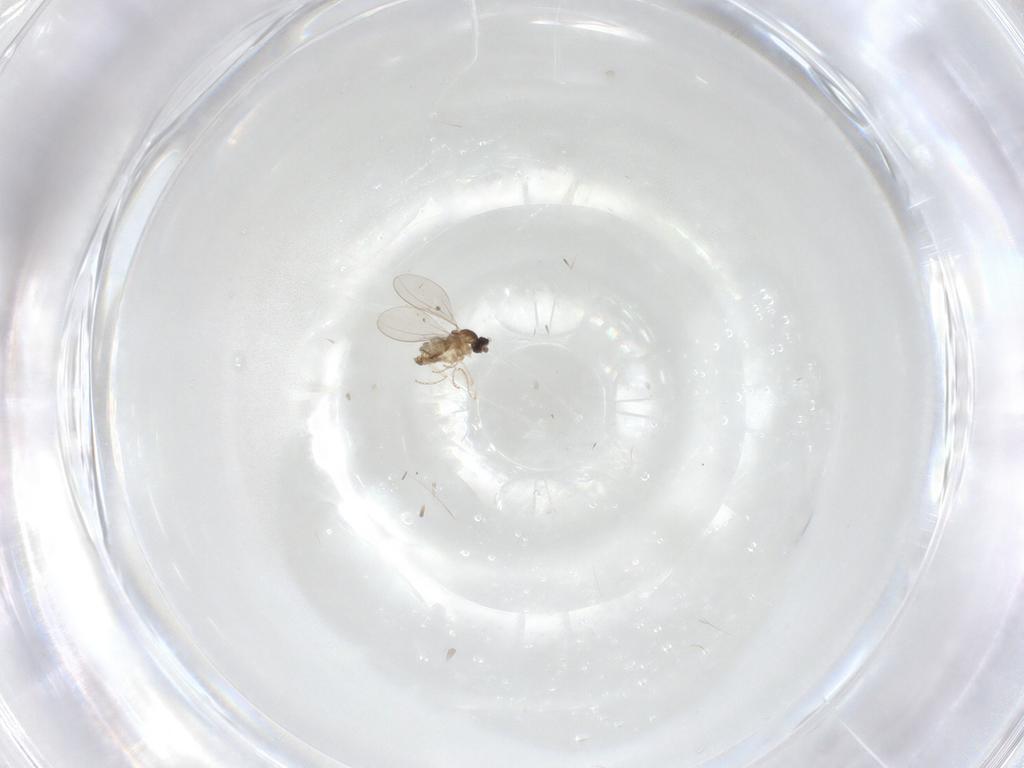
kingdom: Animalia
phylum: Arthropoda
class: Insecta
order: Diptera
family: Cecidomyiidae
